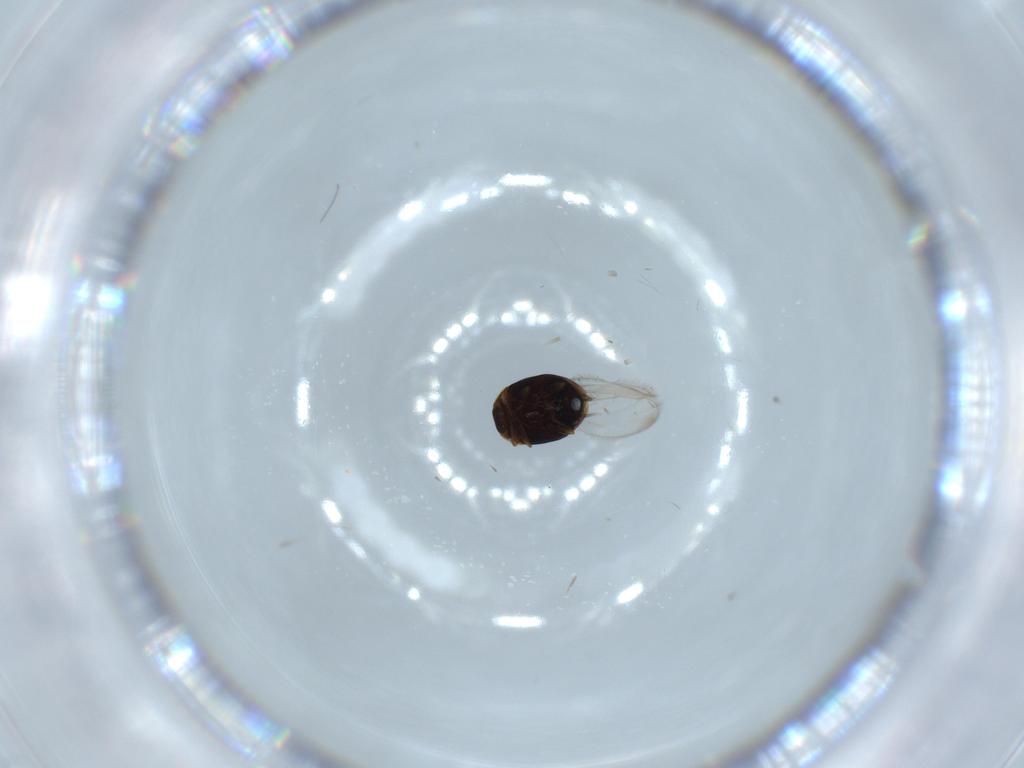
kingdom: Animalia
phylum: Arthropoda
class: Insecta
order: Coleoptera
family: Corylophidae
